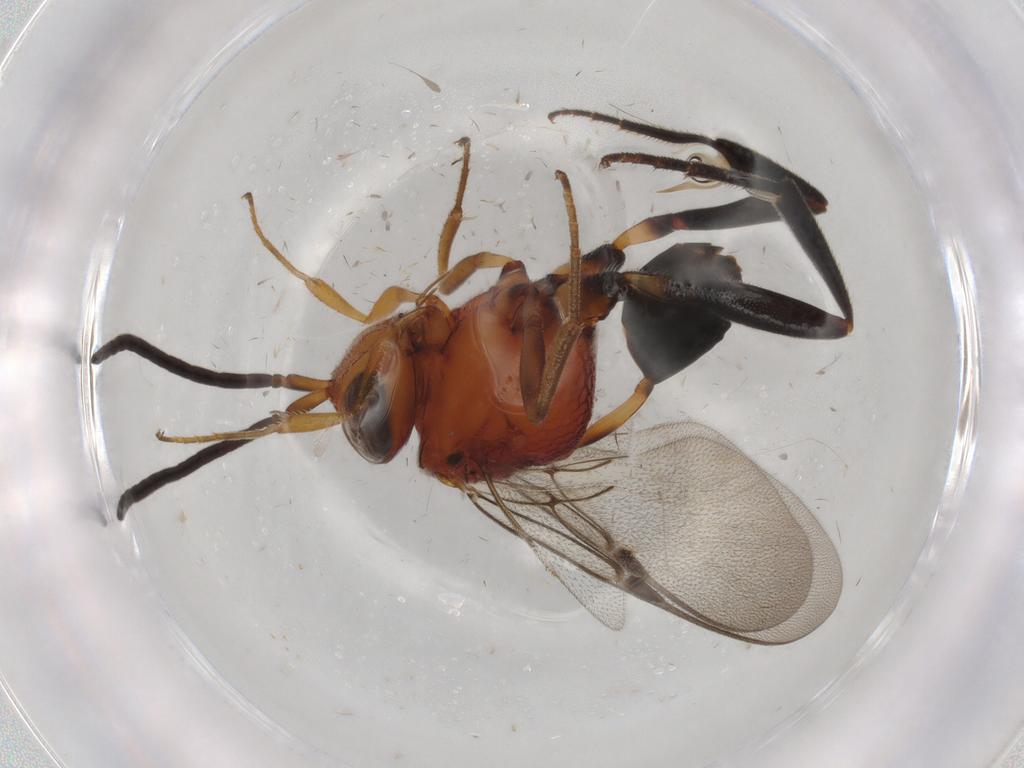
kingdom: Animalia
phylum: Arthropoda
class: Insecta
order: Hymenoptera
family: Evaniidae
